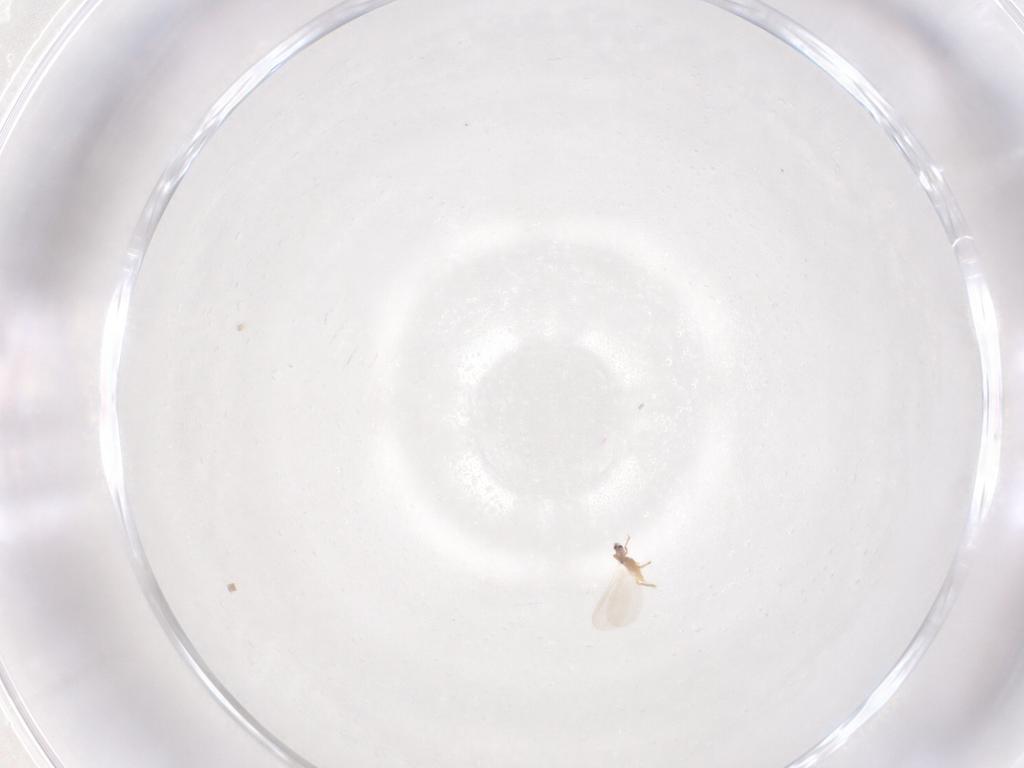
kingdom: Animalia
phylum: Arthropoda
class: Insecta
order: Hemiptera
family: Diaspididae
